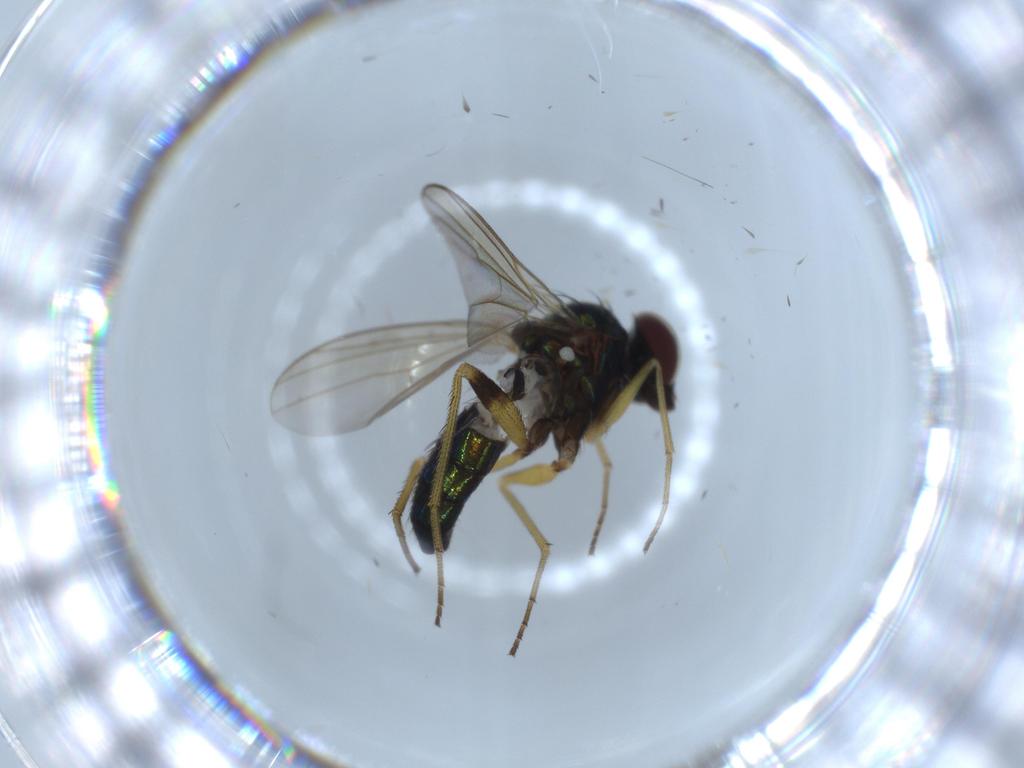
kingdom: Animalia
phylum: Arthropoda
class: Insecta
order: Diptera
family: Dolichopodidae
